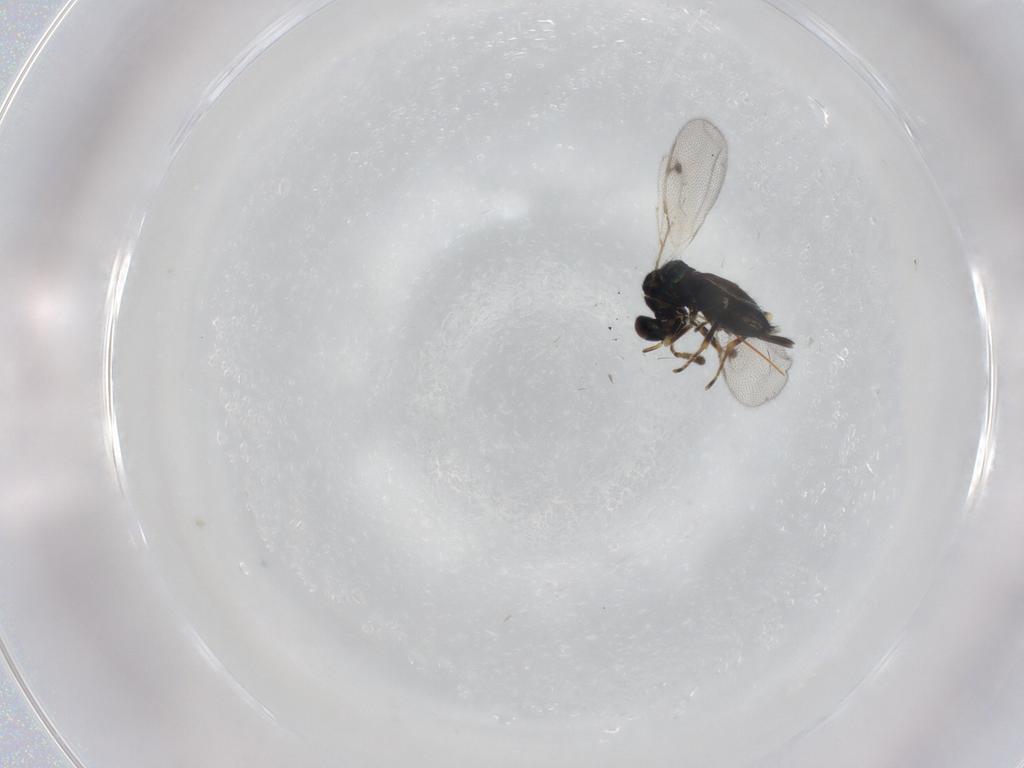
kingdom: Animalia
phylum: Arthropoda
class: Insecta
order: Hymenoptera
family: Pirenidae
